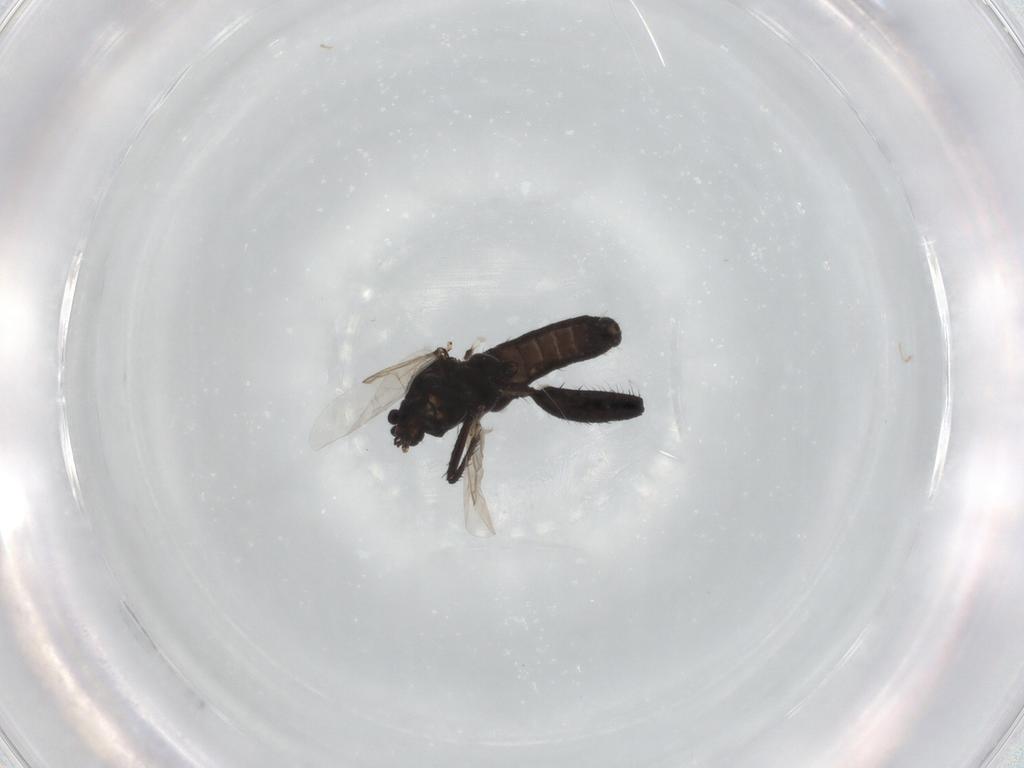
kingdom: Animalia
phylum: Arthropoda
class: Insecta
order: Diptera
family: Ceratopogonidae
